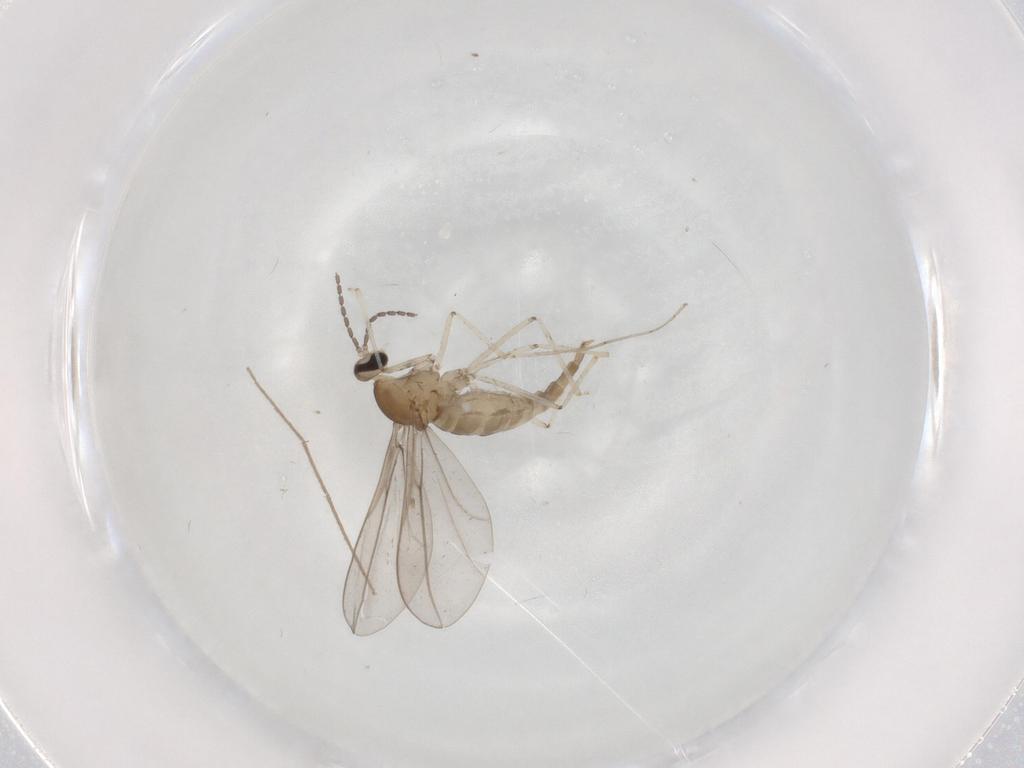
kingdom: Animalia
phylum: Arthropoda
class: Insecta
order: Diptera
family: Cecidomyiidae
